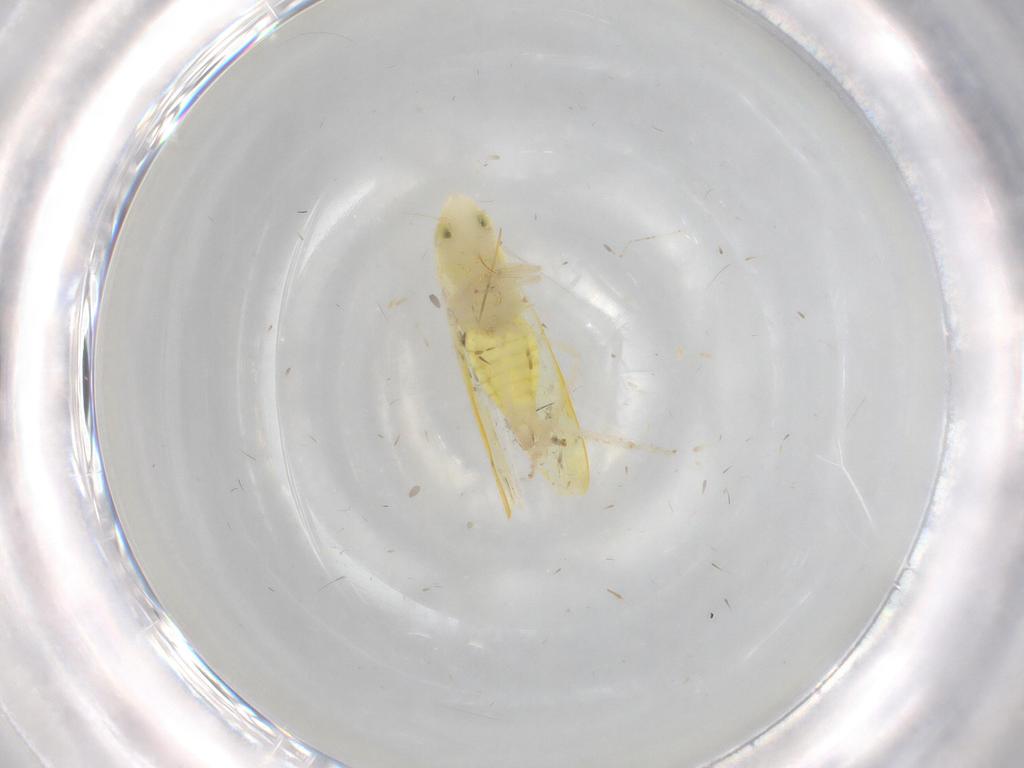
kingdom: Animalia
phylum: Arthropoda
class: Insecta
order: Hemiptera
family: Cicadellidae
